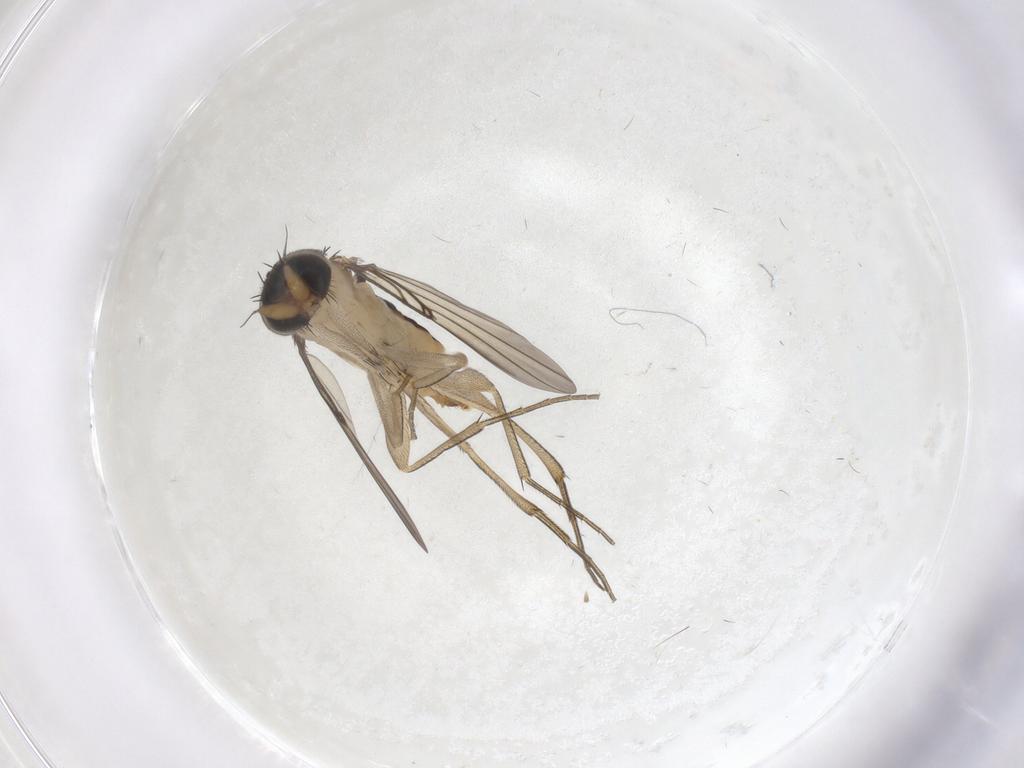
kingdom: Animalia
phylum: Arthropoda
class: Insecta
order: Diptera
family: Phoridae
